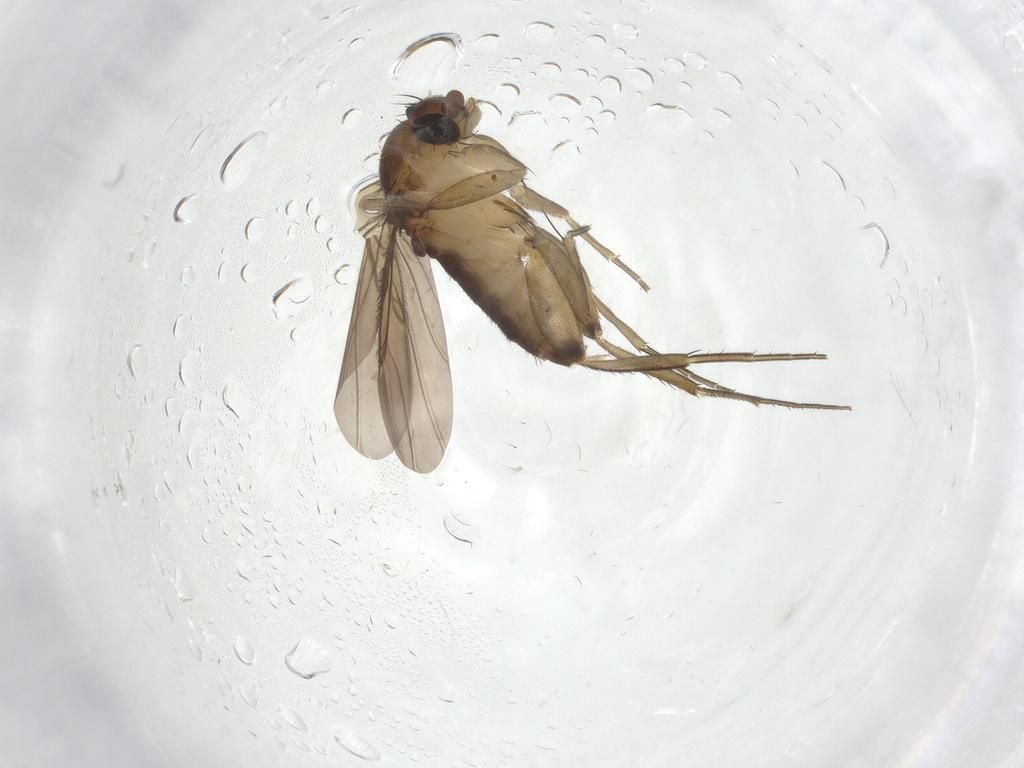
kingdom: Animalia
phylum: Arthropoda
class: Insecta
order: Diptera
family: Phoridae
